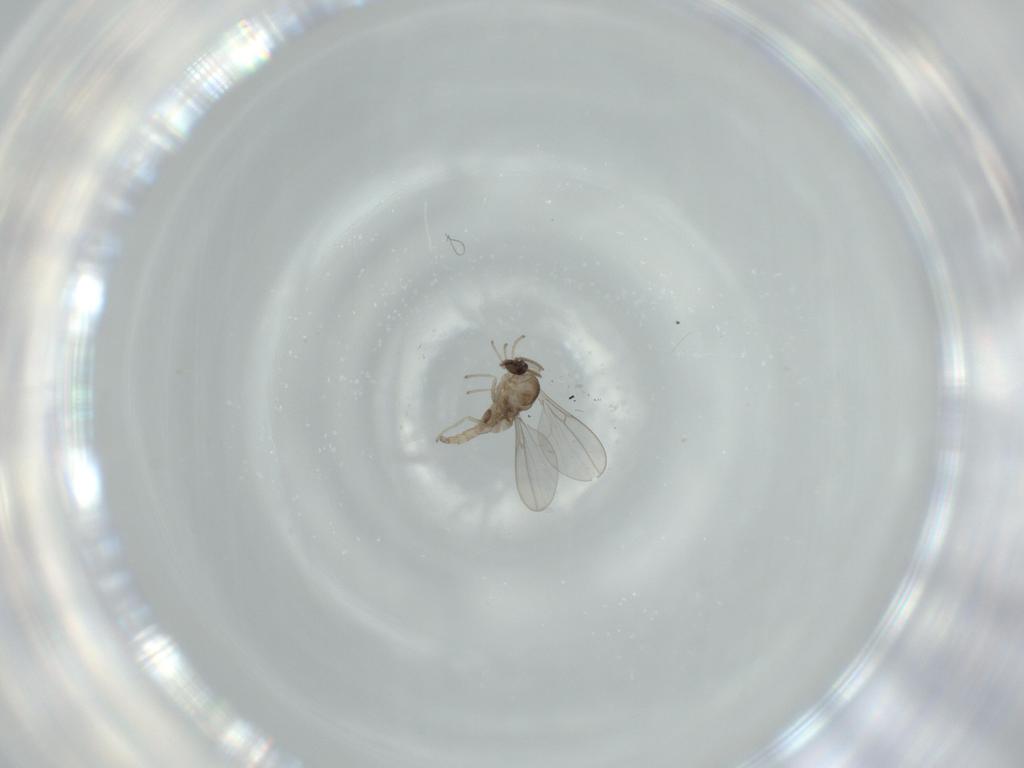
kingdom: Animalia
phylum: Arthropoda
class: Insecta
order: Diptera
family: Cecidomyiidae
